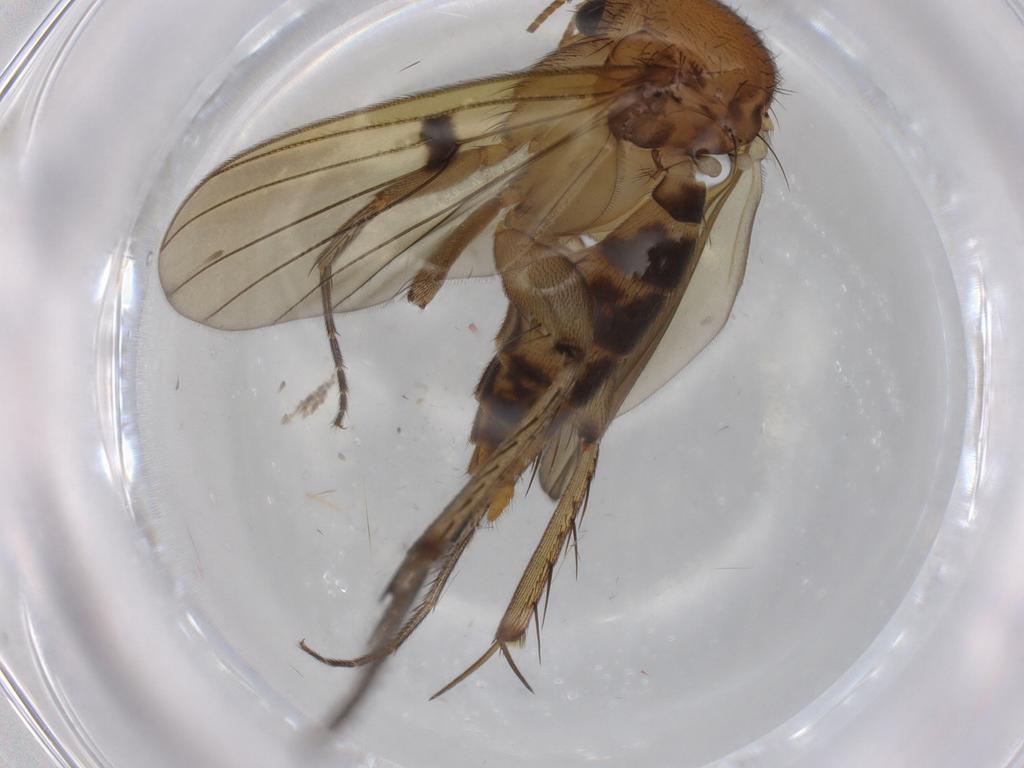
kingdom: Animalia
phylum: Arthropoda
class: Insecta
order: Diptera
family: Mycetophilidae
